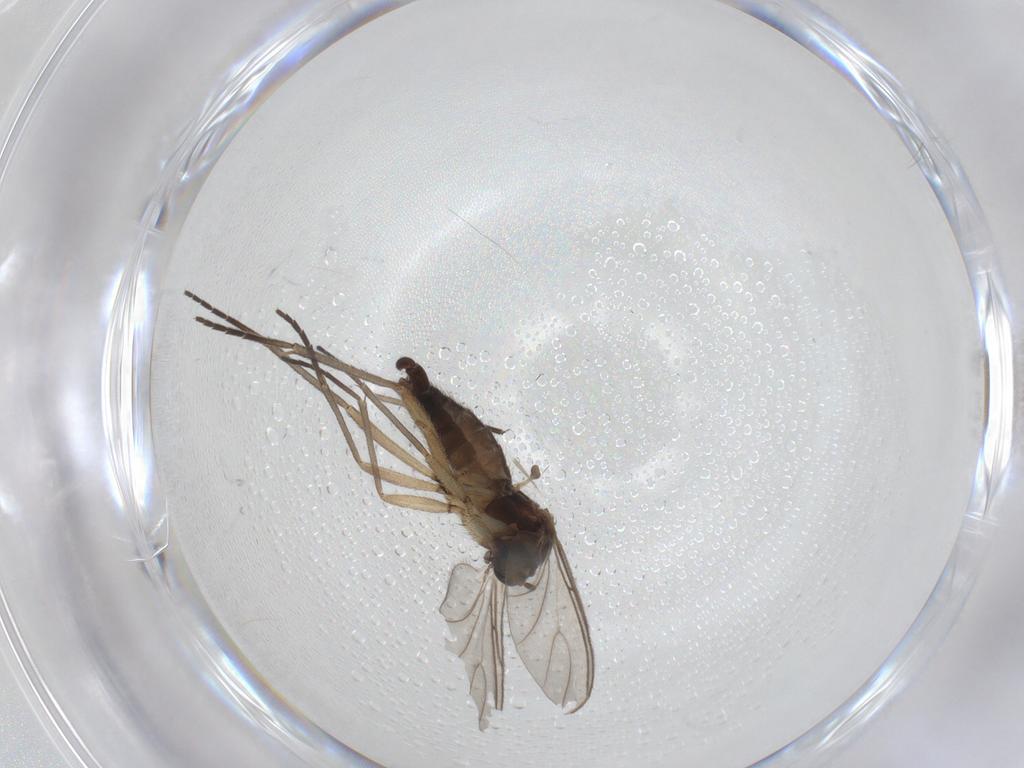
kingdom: Animalia
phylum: Arthropoda
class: Insecta
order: Diptera
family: Sciaridae
